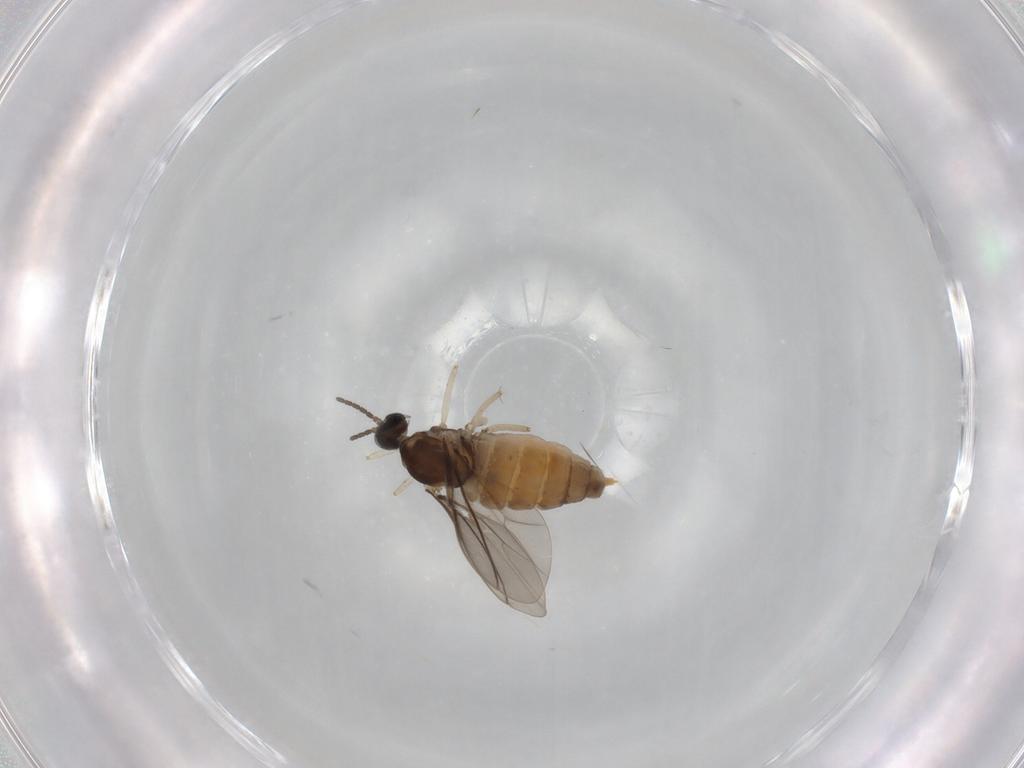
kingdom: Animalia
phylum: Arthropoda
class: Insecta
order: Diptera
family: Cecidomyiidae
